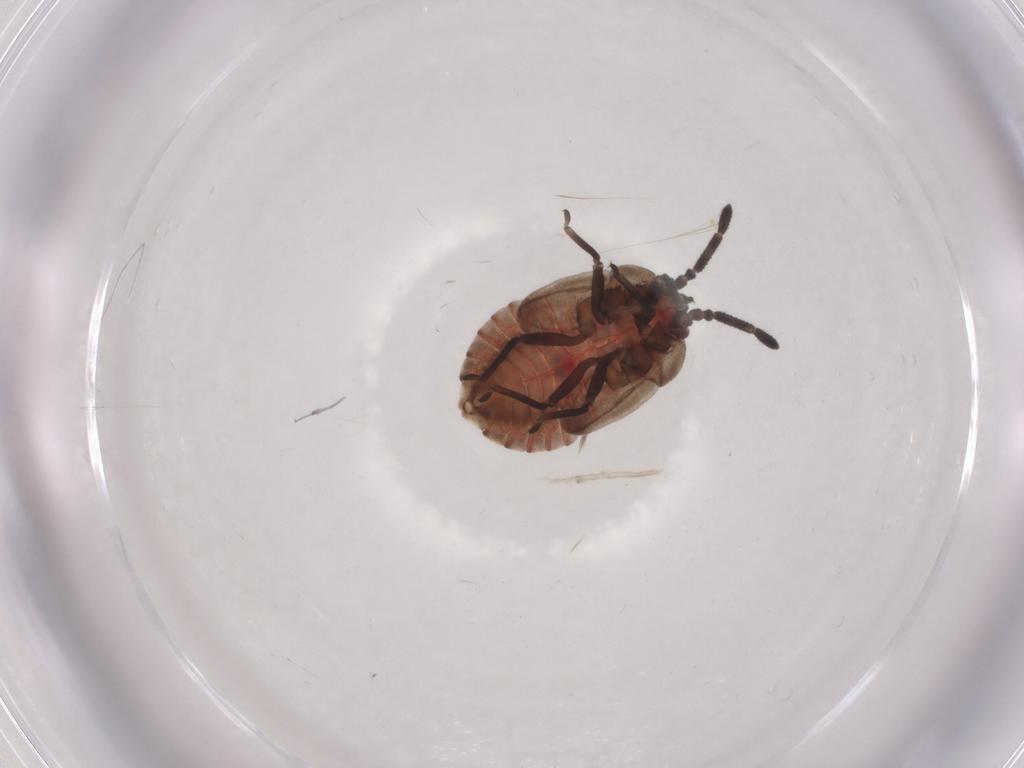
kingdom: Animalia
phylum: Arthropoda
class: Insecta
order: Hemiptera
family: Tingidae
